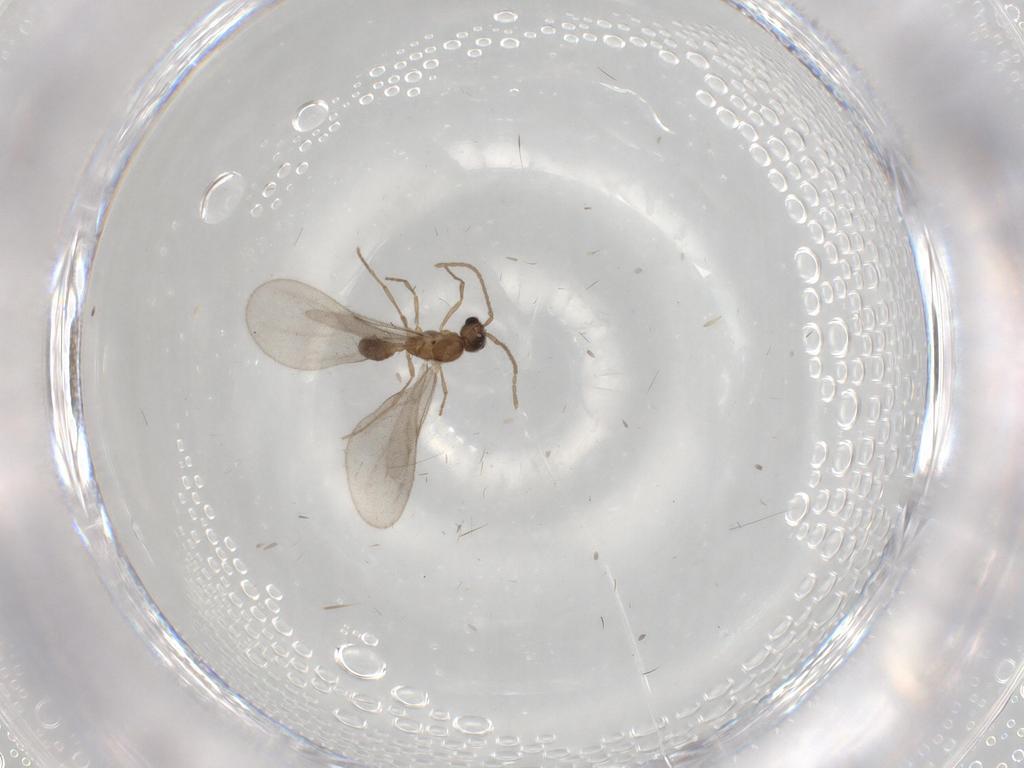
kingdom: Animalia
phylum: Arthropoda
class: Insecta
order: Hymenoptera
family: Formicidae
